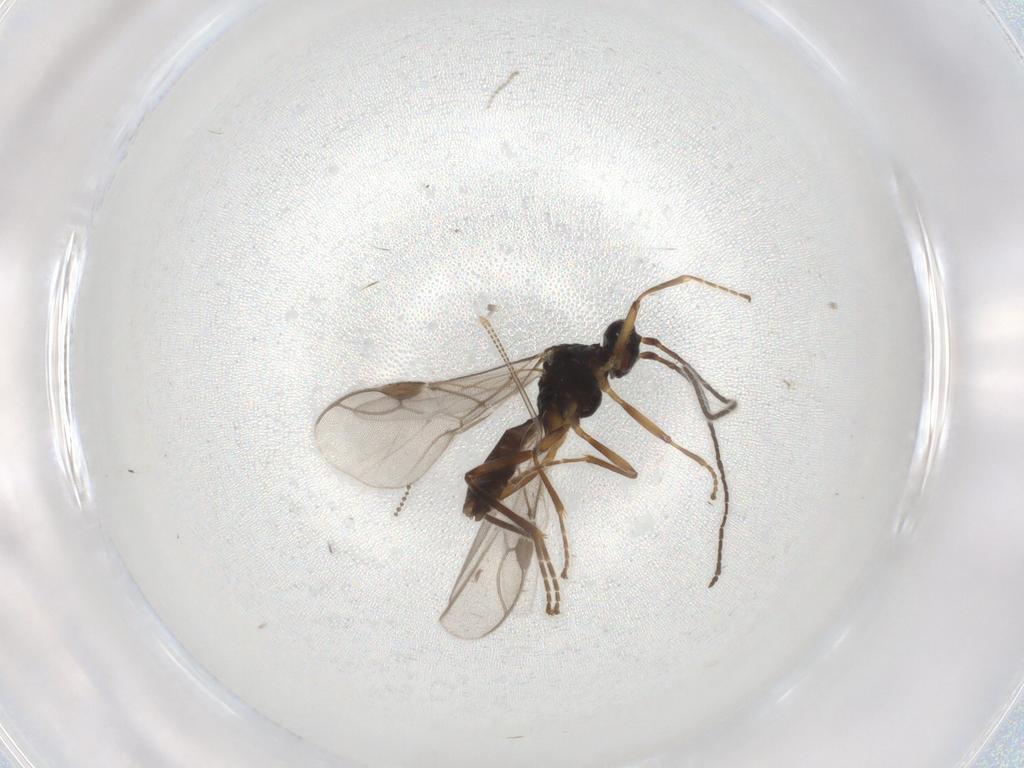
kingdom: Animalia
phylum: Arthropoda
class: Insecta
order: Hymenoptera
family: Braconidae
